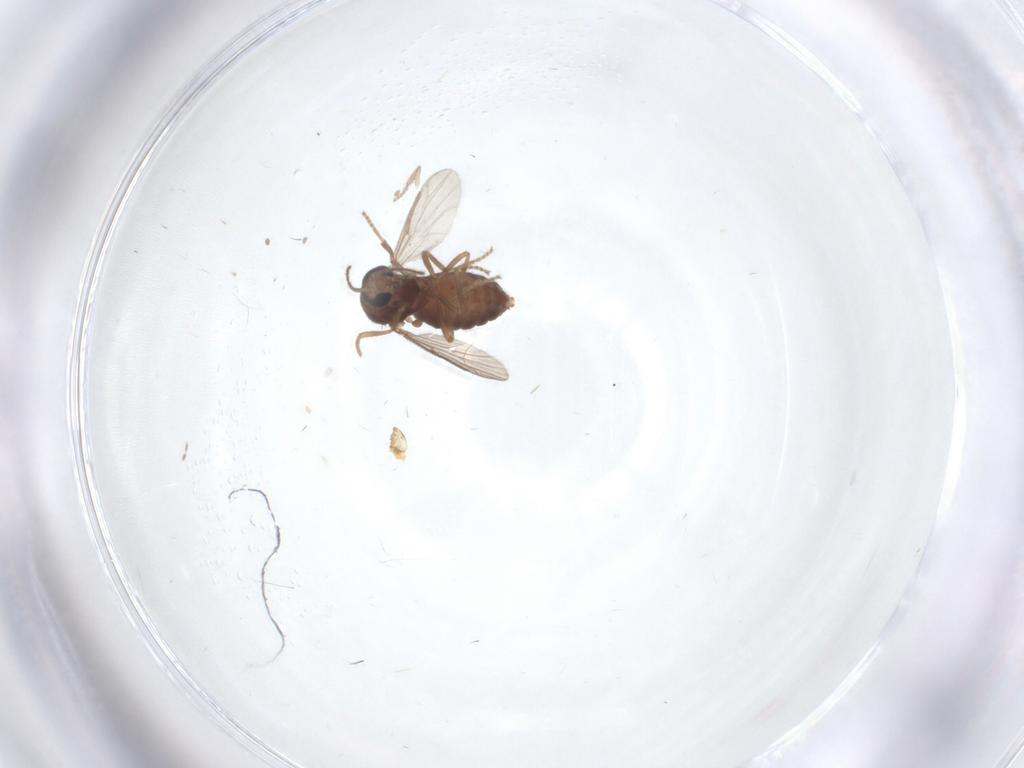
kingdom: Animalia
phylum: Arthropoda
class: Insecta
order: Diptera
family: Ceratopogonidae
